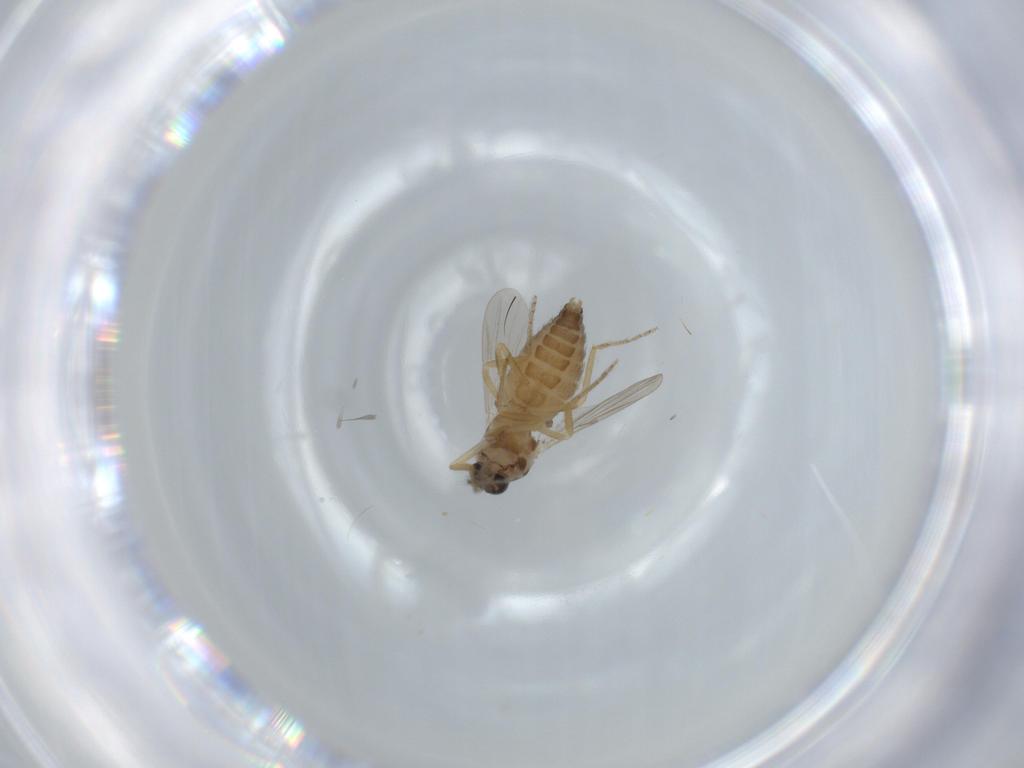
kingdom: Animalia
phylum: Arthropoda
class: Insecta
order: Diptera
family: Ceratopogonidae
